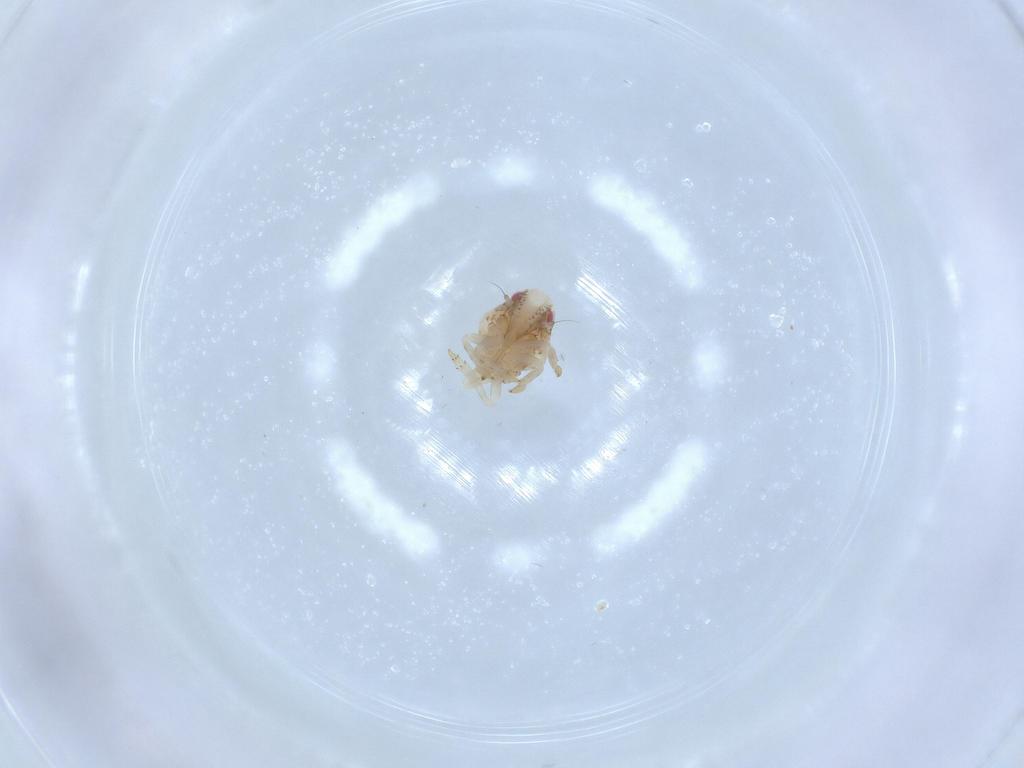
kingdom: Animalia
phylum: Arthropoda
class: Insecta
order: Hemiptera
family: Acanaloniidae
